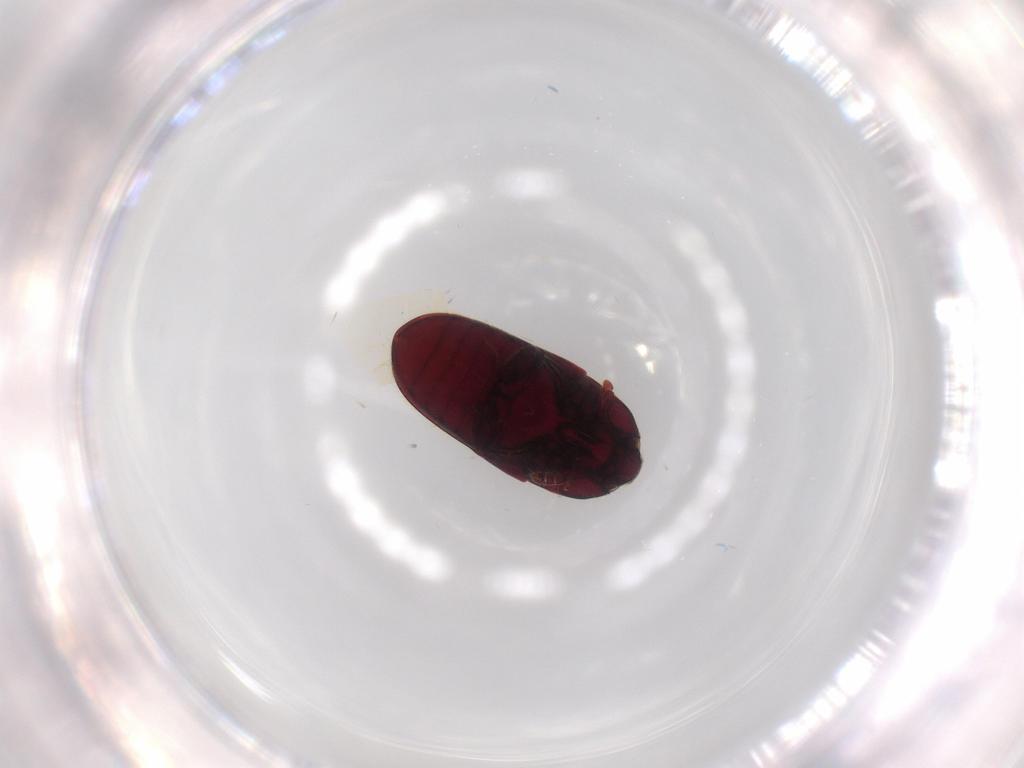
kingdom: Animalia
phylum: Arthropoda
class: Insecta
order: Coleoptera
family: Throscidae
